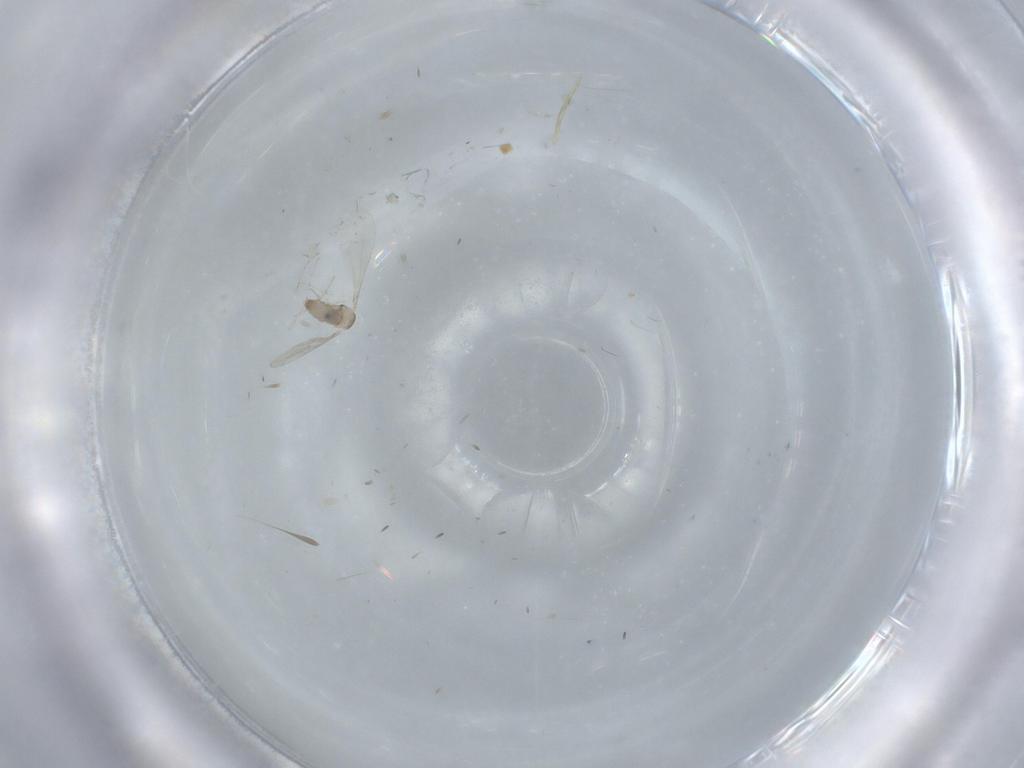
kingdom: Animalia
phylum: Arthropoda
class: Insecta
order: Diptera
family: Cecidomyiidae
